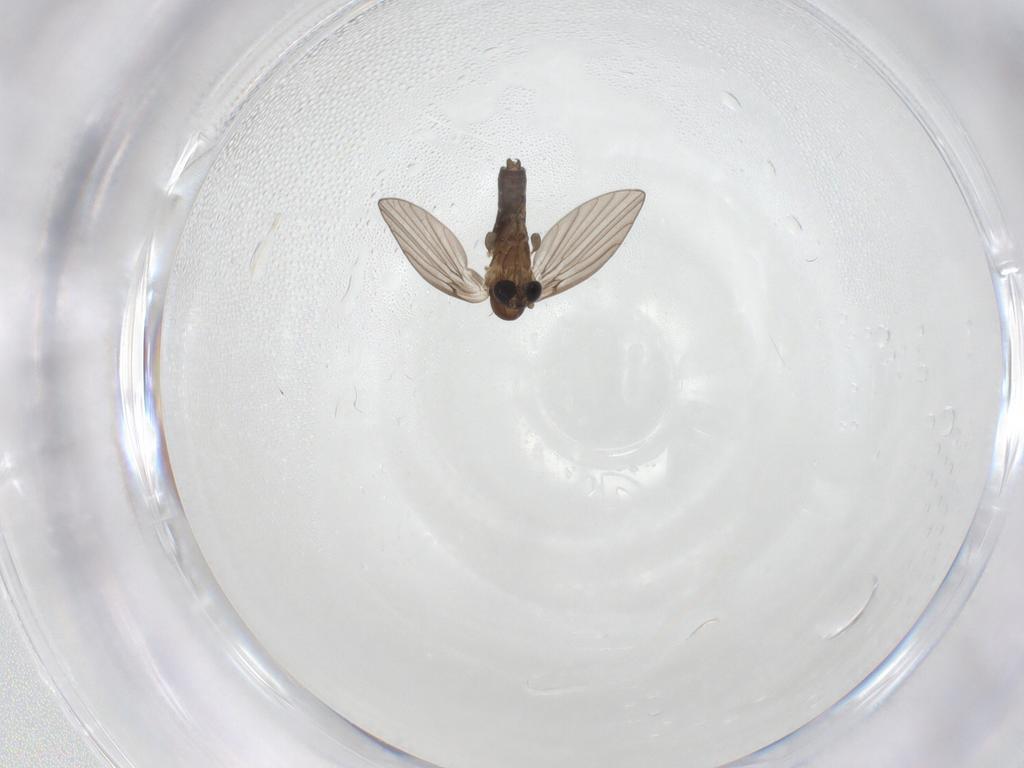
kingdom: Animalia
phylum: Arthropoda
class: Insecta
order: Diptera
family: Psychodidae
